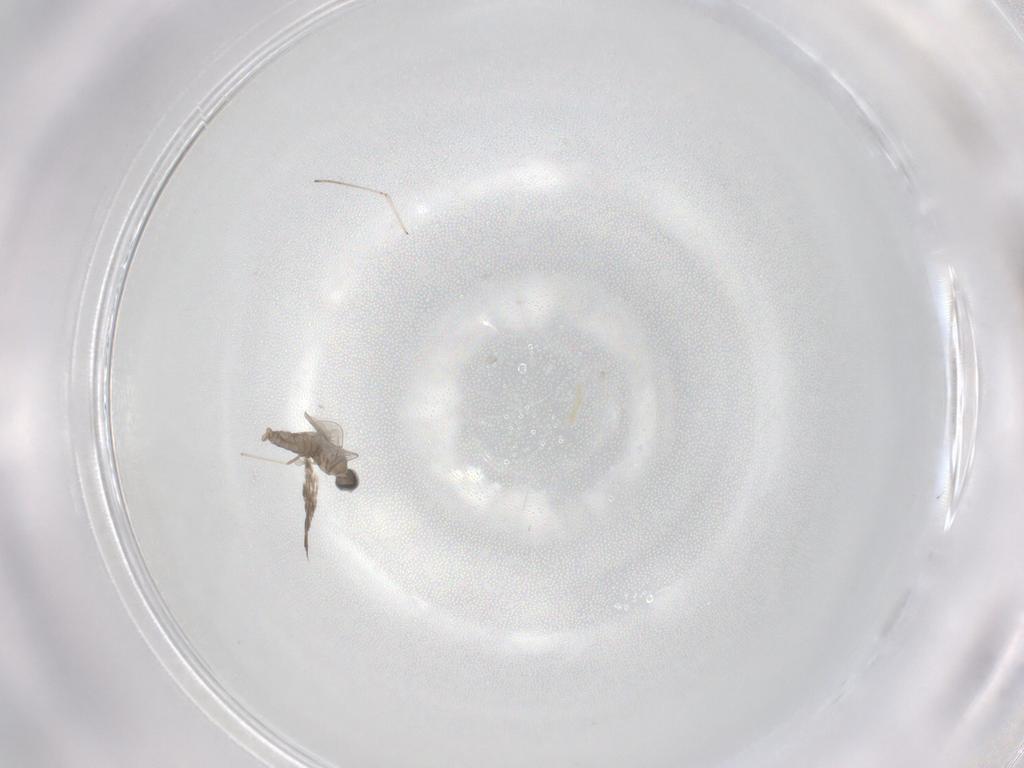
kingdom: Animalia
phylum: Arthropoda
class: Insecta
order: Diptera
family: Cecidomyiidae
